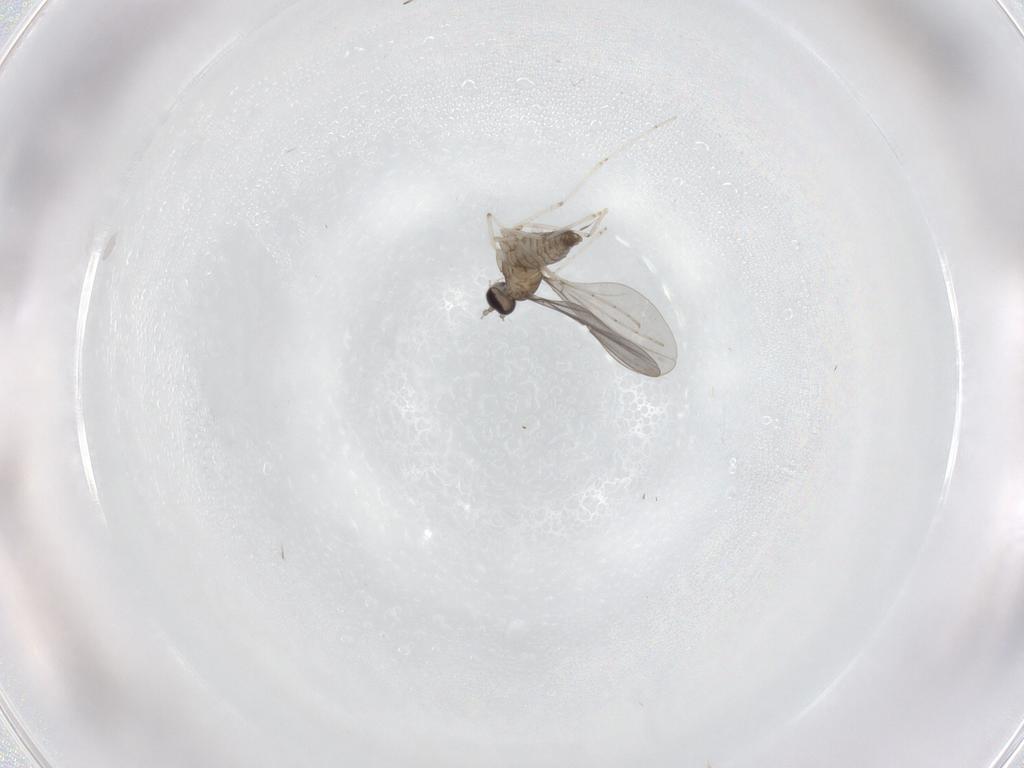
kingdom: Animalia
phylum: Arthropoda
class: Insecta
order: Diptera
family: Cecidomyiidae
